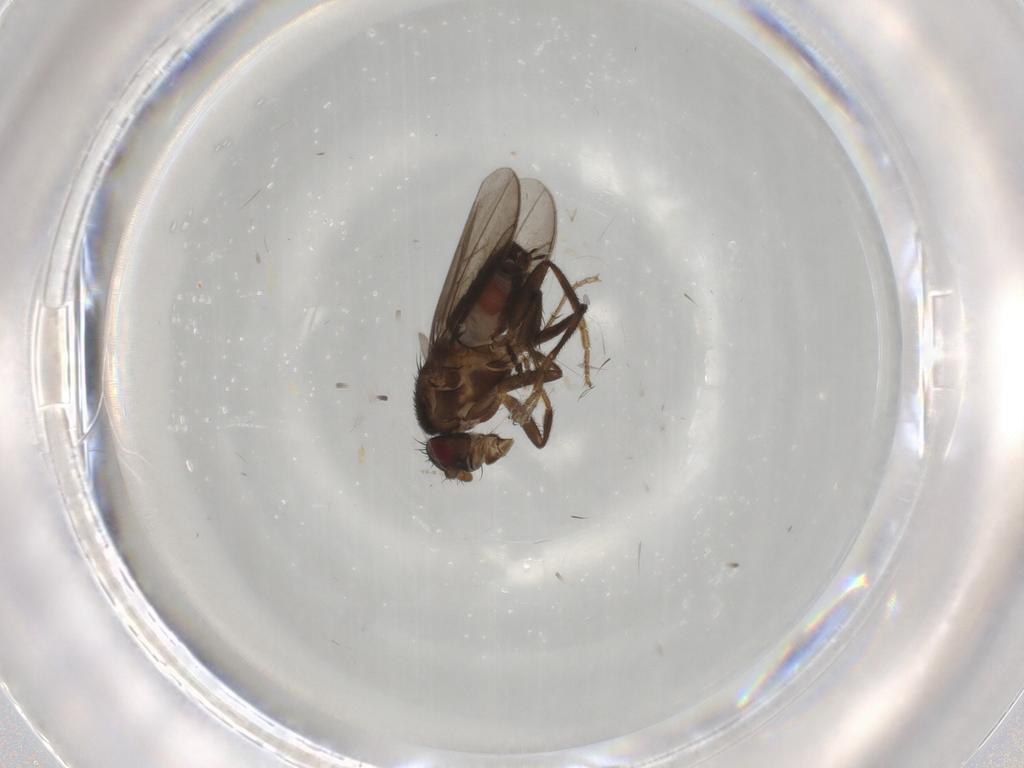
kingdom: Animalia
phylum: Arthropoda
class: Insecta
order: Diptera
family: Sciaridae
